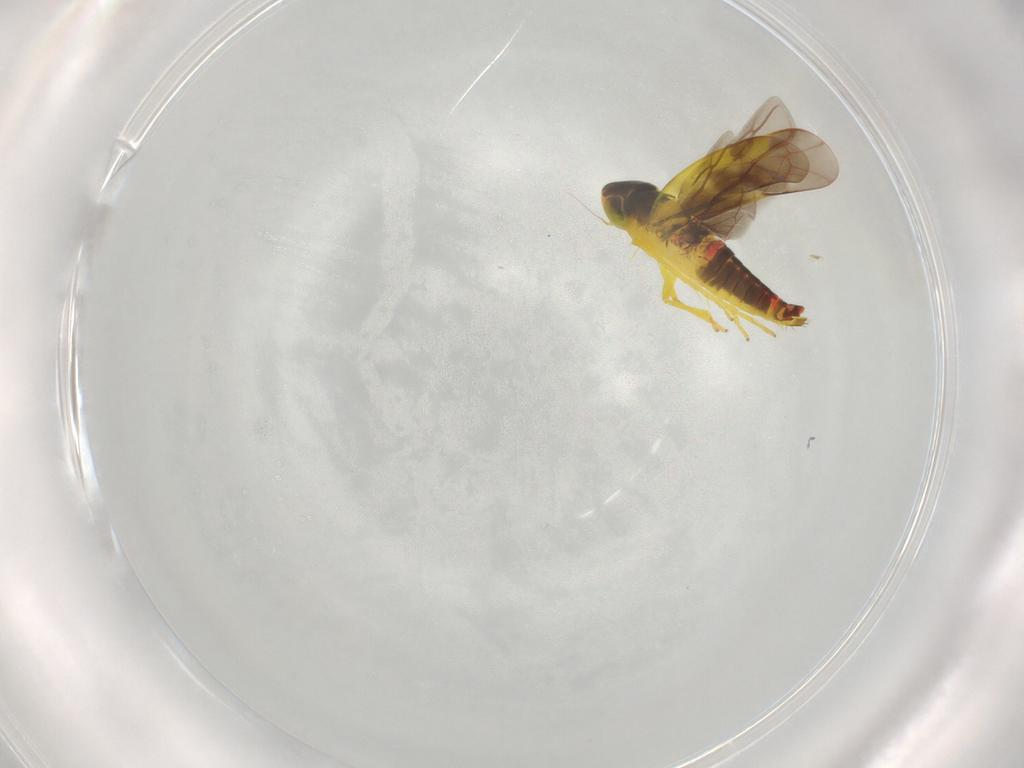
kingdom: Animalia
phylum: Arthropoda
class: Insecta
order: Hemiptera
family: Cicadellidae
